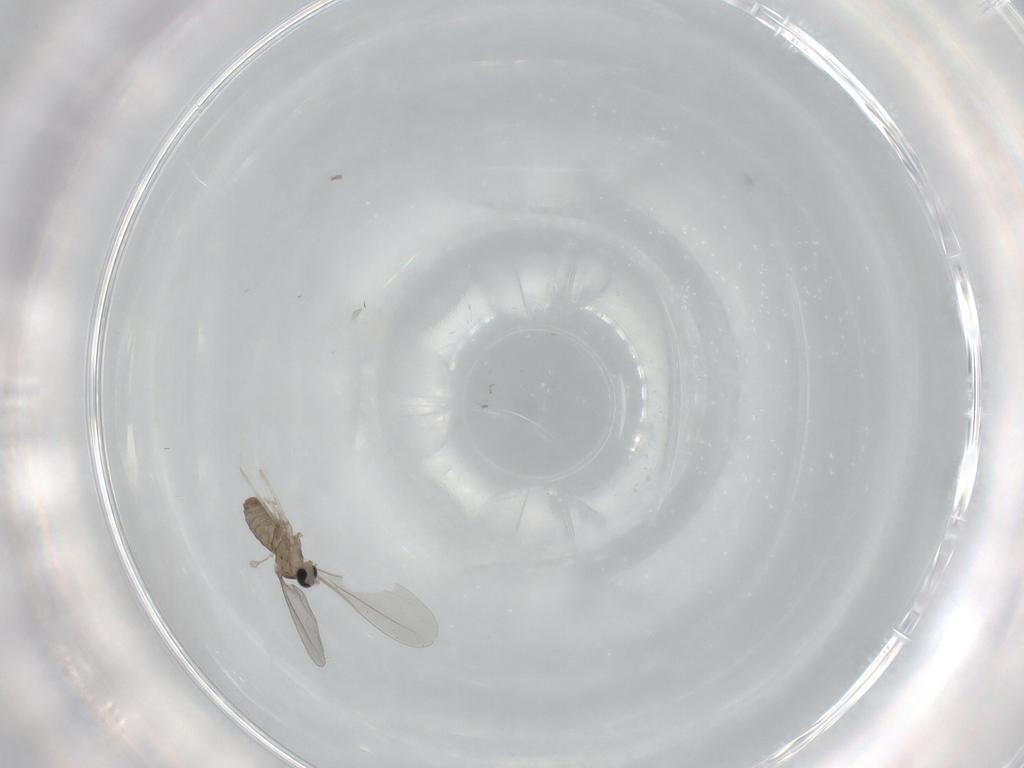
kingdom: Animalia
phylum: Arthropoda
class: Insecta
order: Diptera
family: Cecidomyiidae
